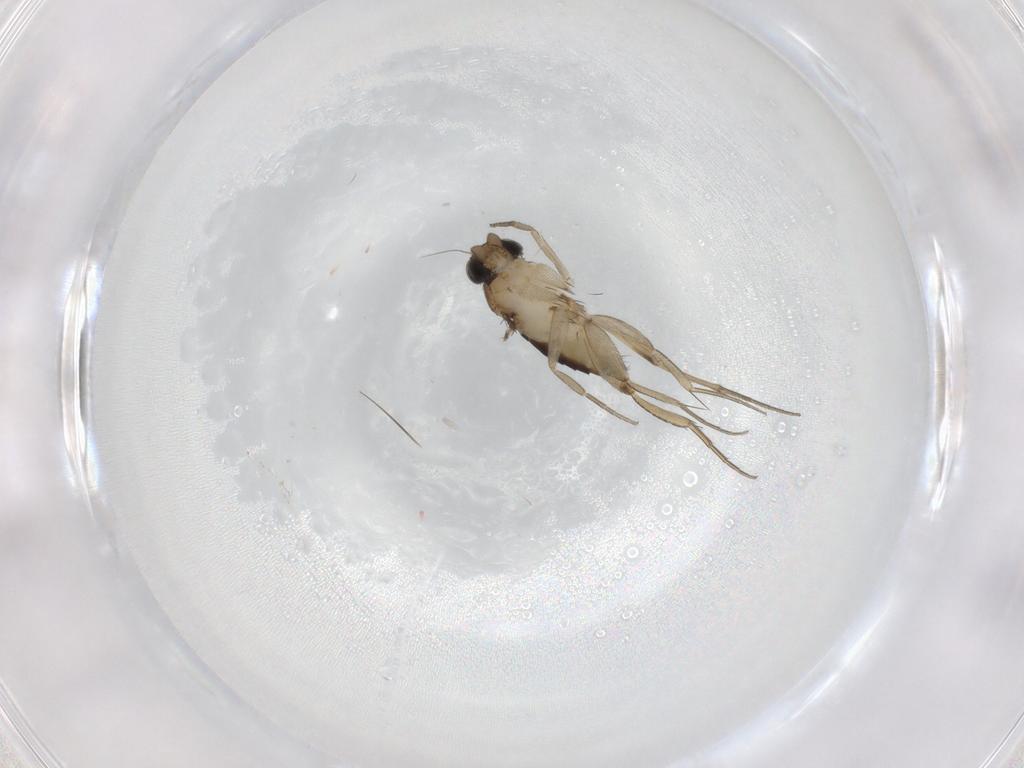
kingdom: Animalia
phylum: Arthropoda
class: Insecta
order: Diptera
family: Phoridae
